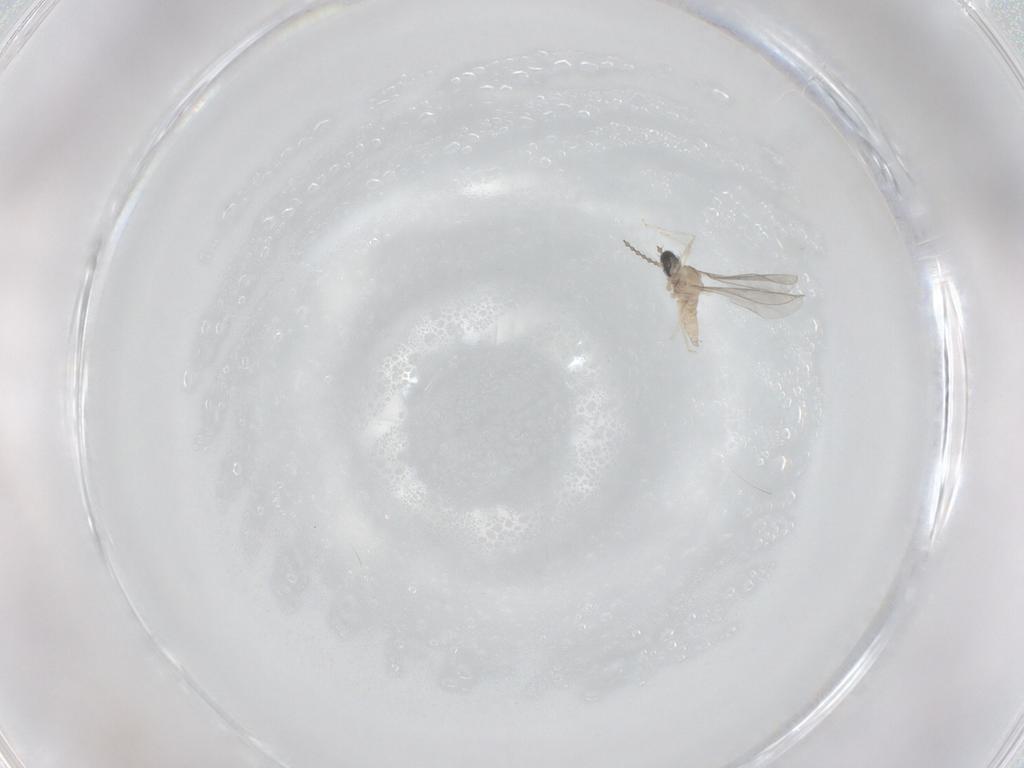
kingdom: Animalia
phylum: Arthropoda
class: Insecta
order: Diptera
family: Cecidomyiidae
